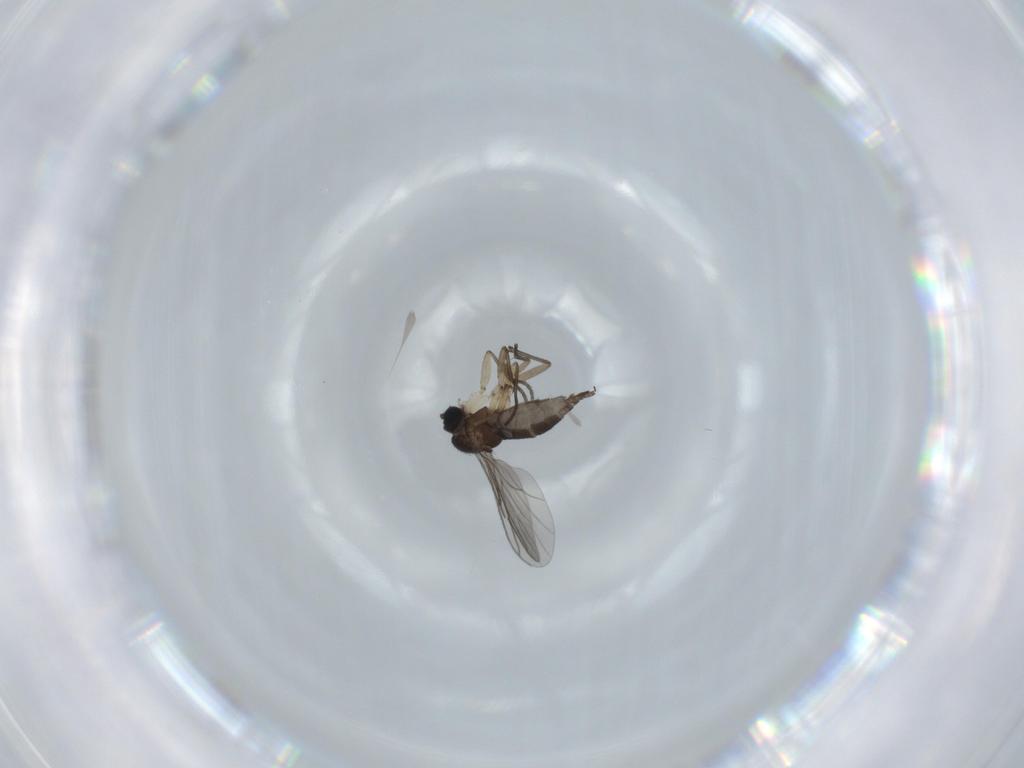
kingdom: Animalia
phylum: Arthropoda
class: Insecta
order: Diptera
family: Sciaridae
